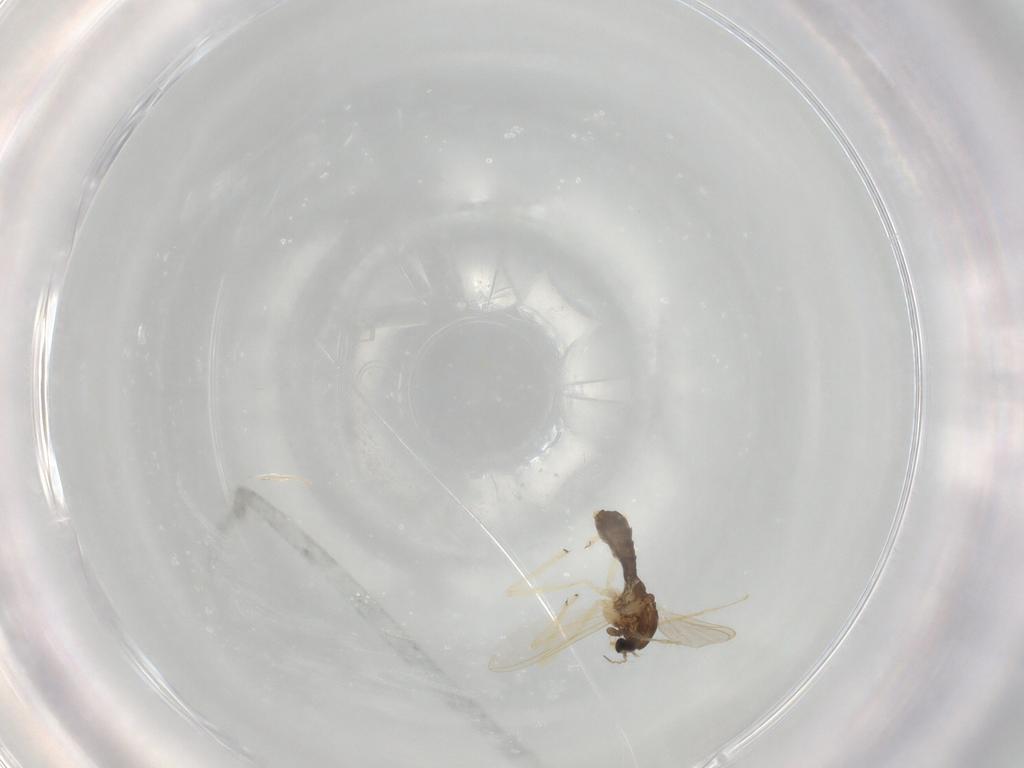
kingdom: Animalia
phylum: Arthropoda
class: Insecta
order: Diptera
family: Chironomidae
